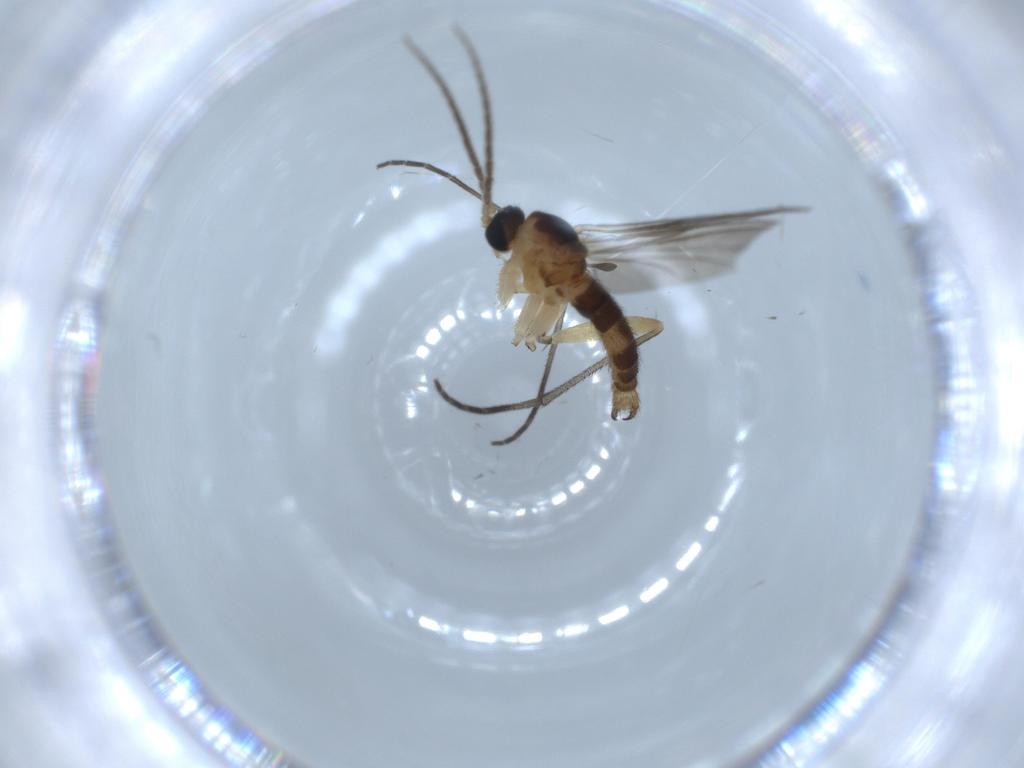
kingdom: Animalia
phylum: Arthropoda
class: Insecta
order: Diptera
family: Sciaridae
